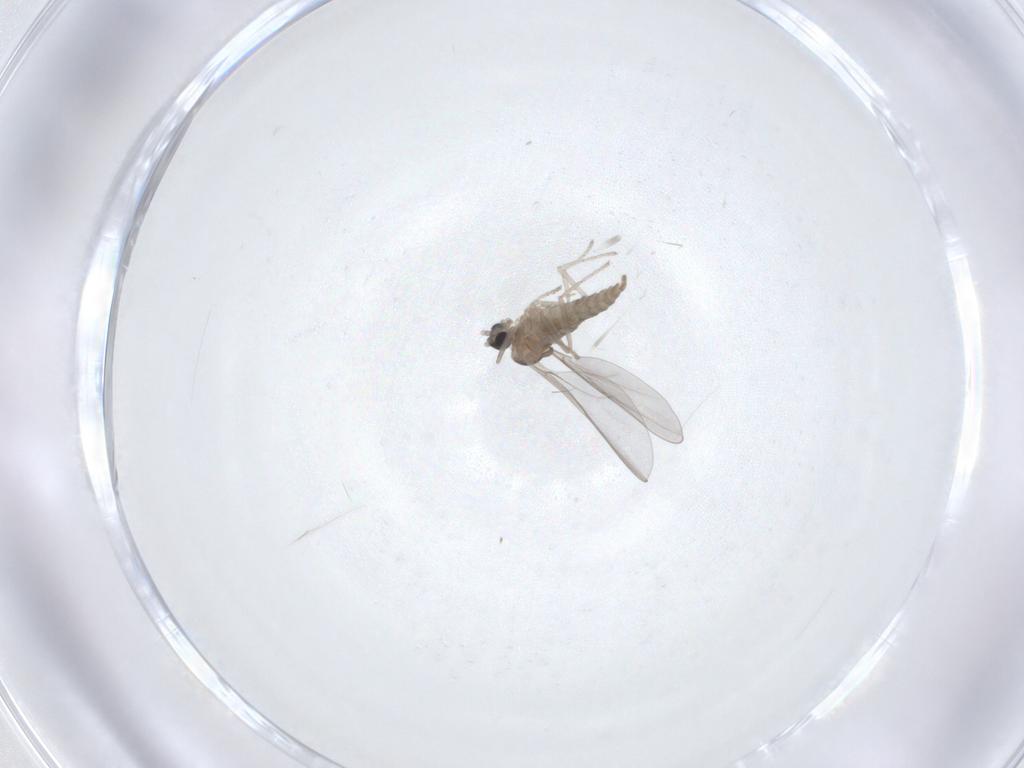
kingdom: Animalia
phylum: Arthropoda
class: Insecta
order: Diptera
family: Cecidomyiidae
